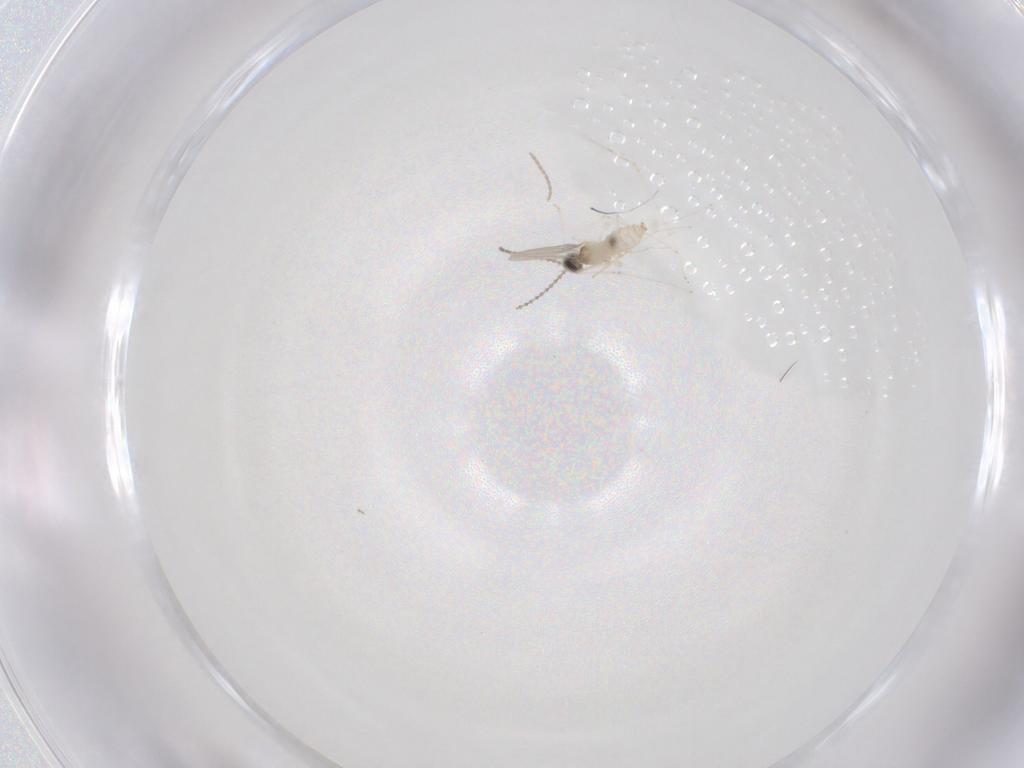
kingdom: Animalia
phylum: Arthropoda
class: Insecta
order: Diptera
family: Cecidomyiidae
